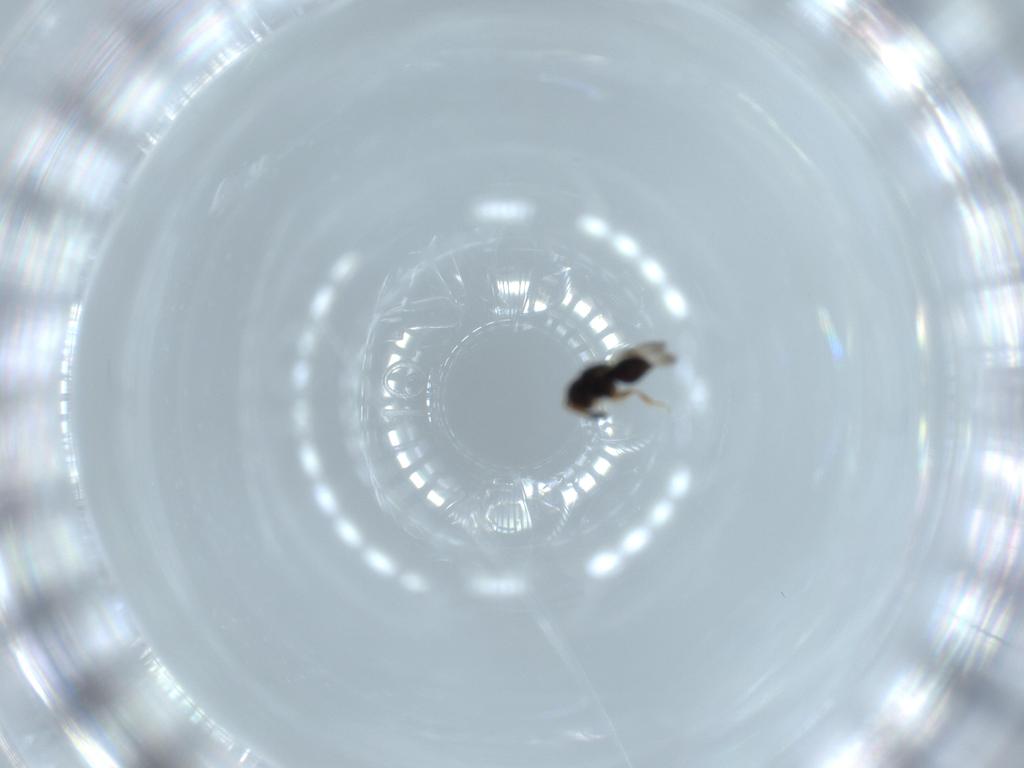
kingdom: Animalia
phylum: Arthropoda
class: Insecta
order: Hymenoptera
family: Ceraphronidae
